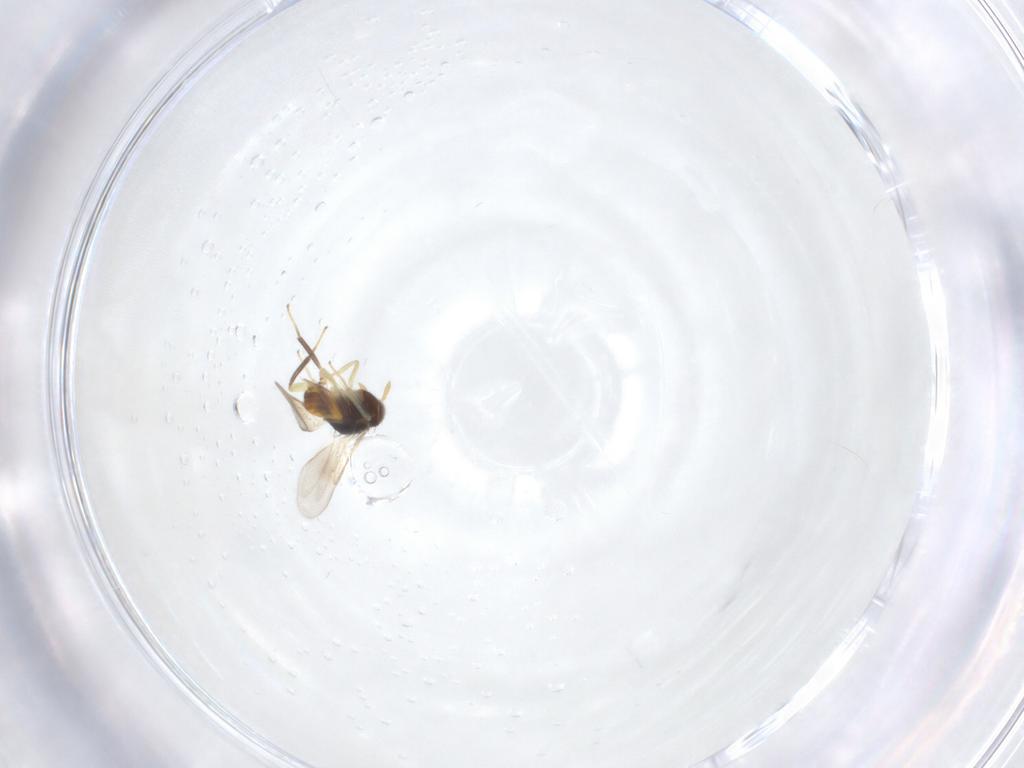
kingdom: Animalia
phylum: Arthropoda
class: Insecta
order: Hymenoptera
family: Aphelinidae
